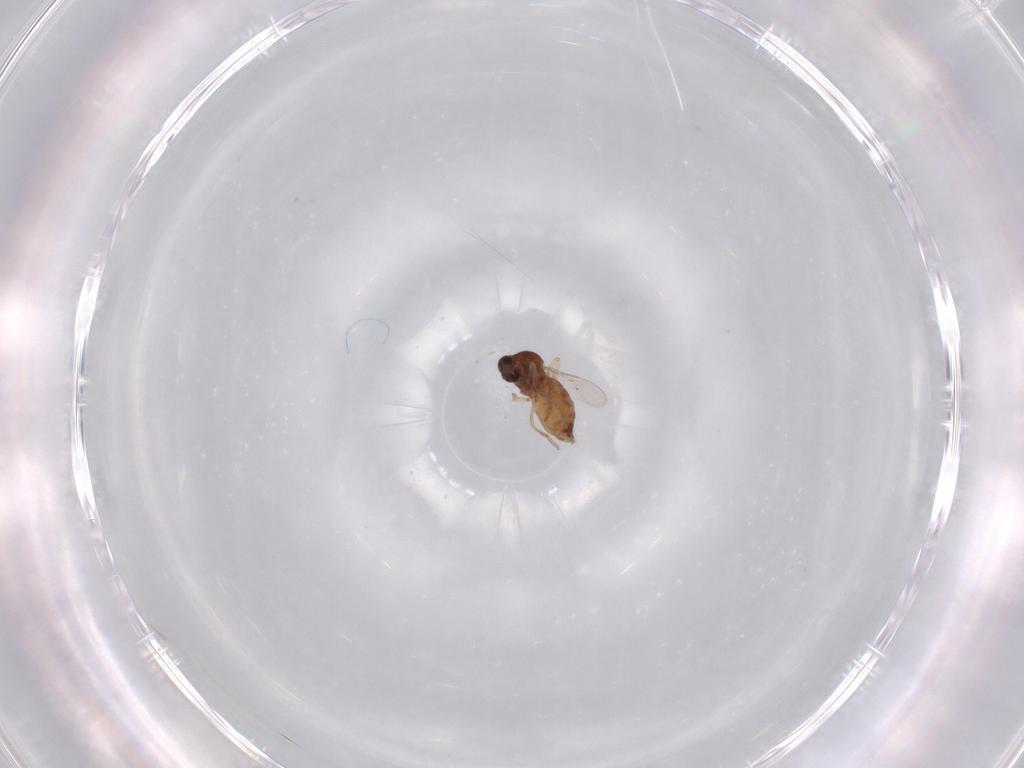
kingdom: Animalia
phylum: Arthropoda
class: Insecta
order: Diptera
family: Ceratopogonidae
